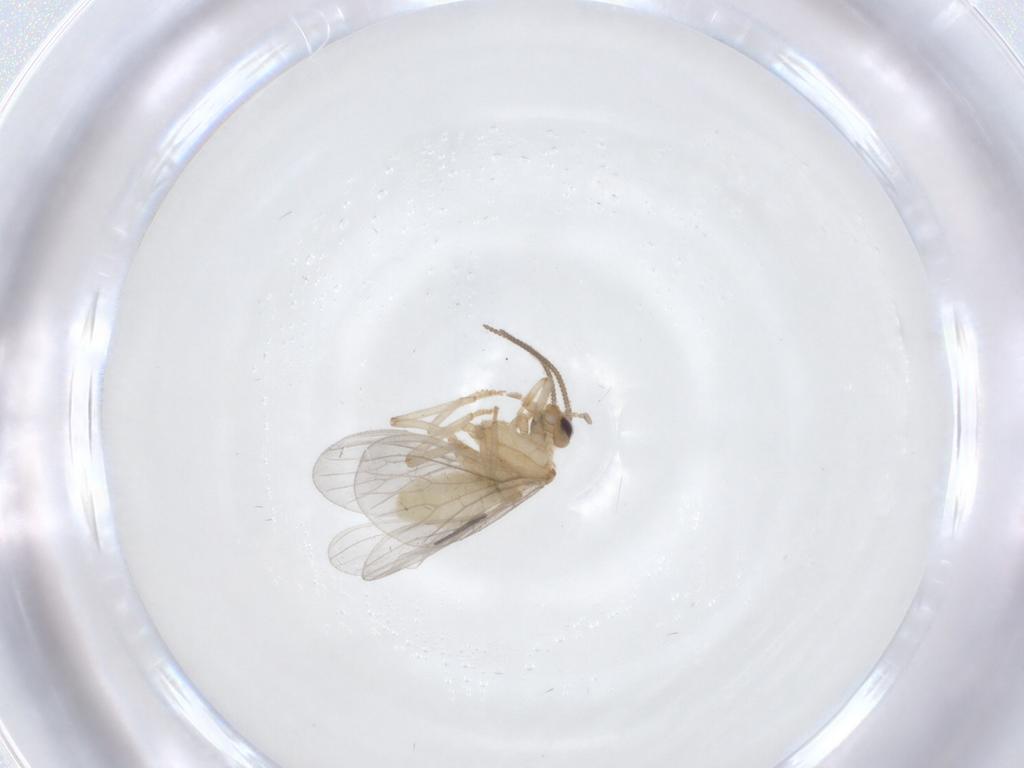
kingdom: Animalia
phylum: Arthropoda
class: Insecta
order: Neuroptera
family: Coniopterygidae
